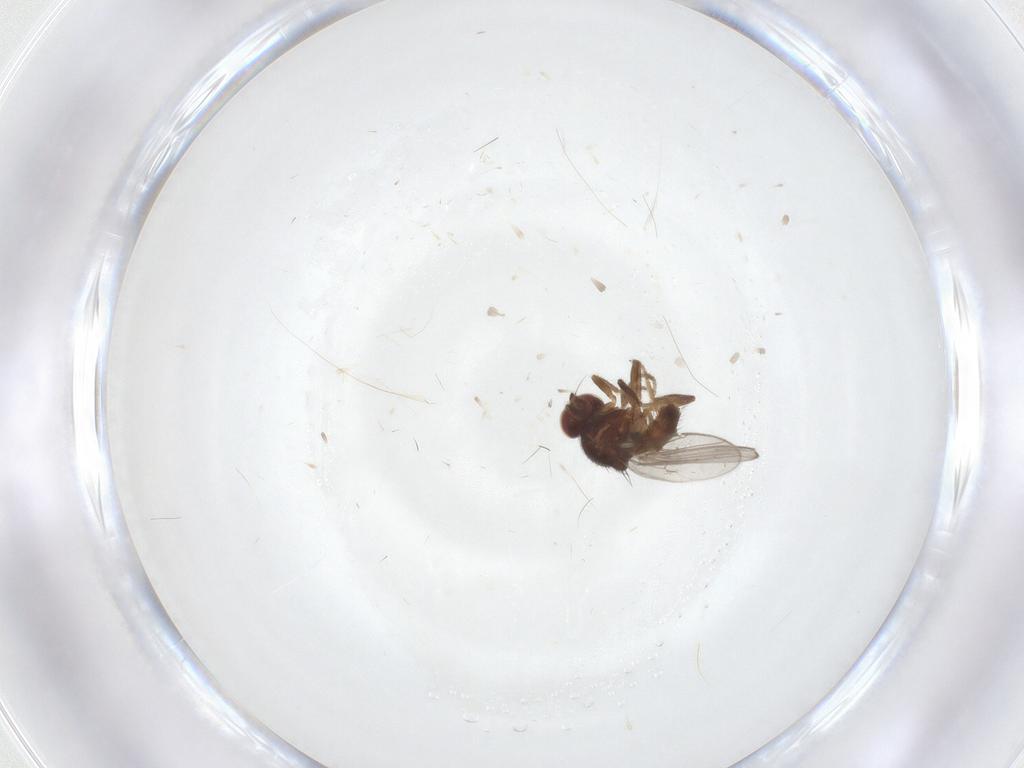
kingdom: Animalia
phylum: Arthropoda
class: Insecta
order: Diptera
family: Chloropidae
